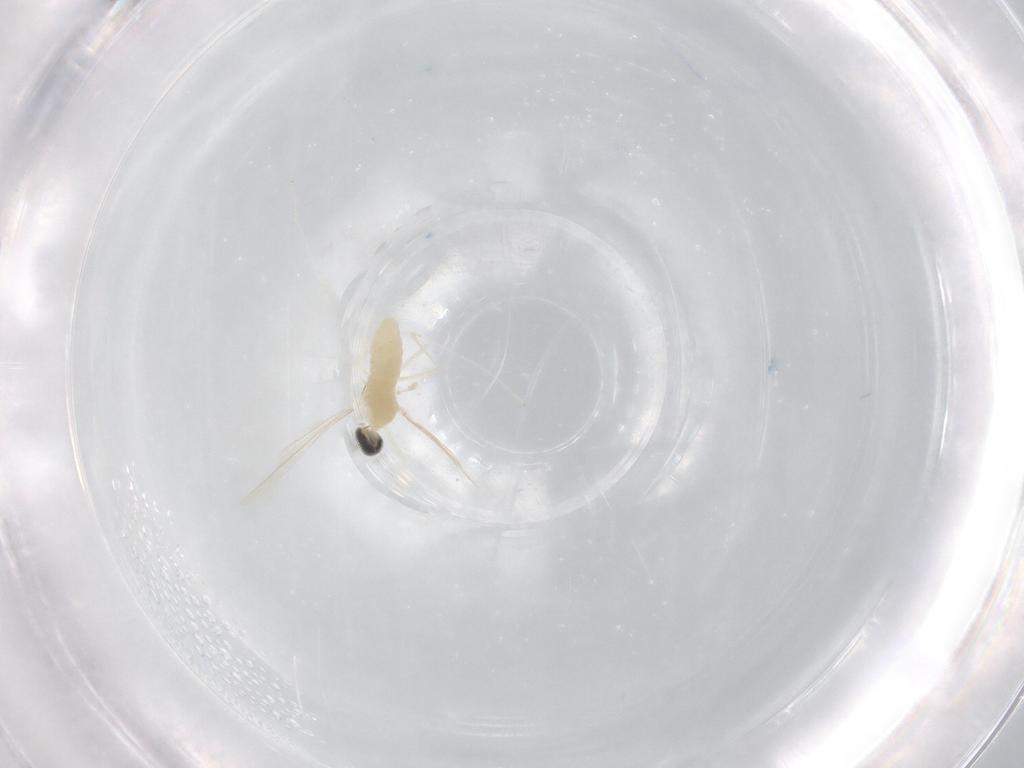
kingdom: Animalia
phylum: Arthropoda
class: Insecta
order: Diptera
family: Cecidomyiidae
